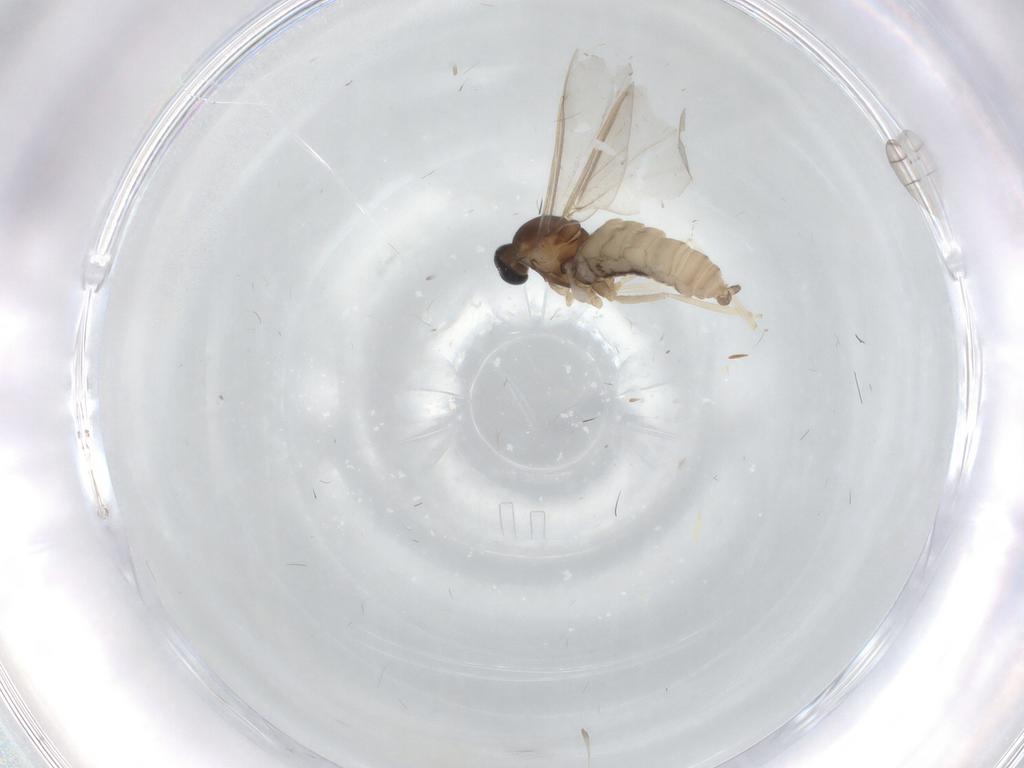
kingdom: Animalia
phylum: Arthropoda
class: Insecta
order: Diptera
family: Cecidomyiidae
